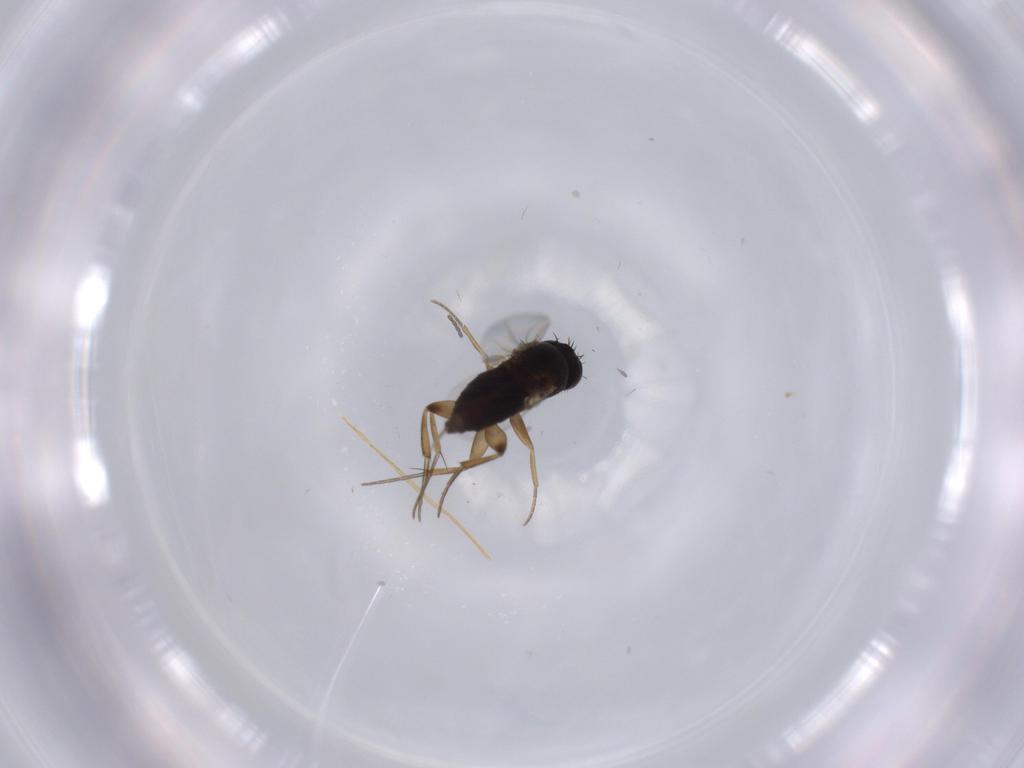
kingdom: Animalia
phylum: Arthropoda
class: Insecta
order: Diptera
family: Phoridae
